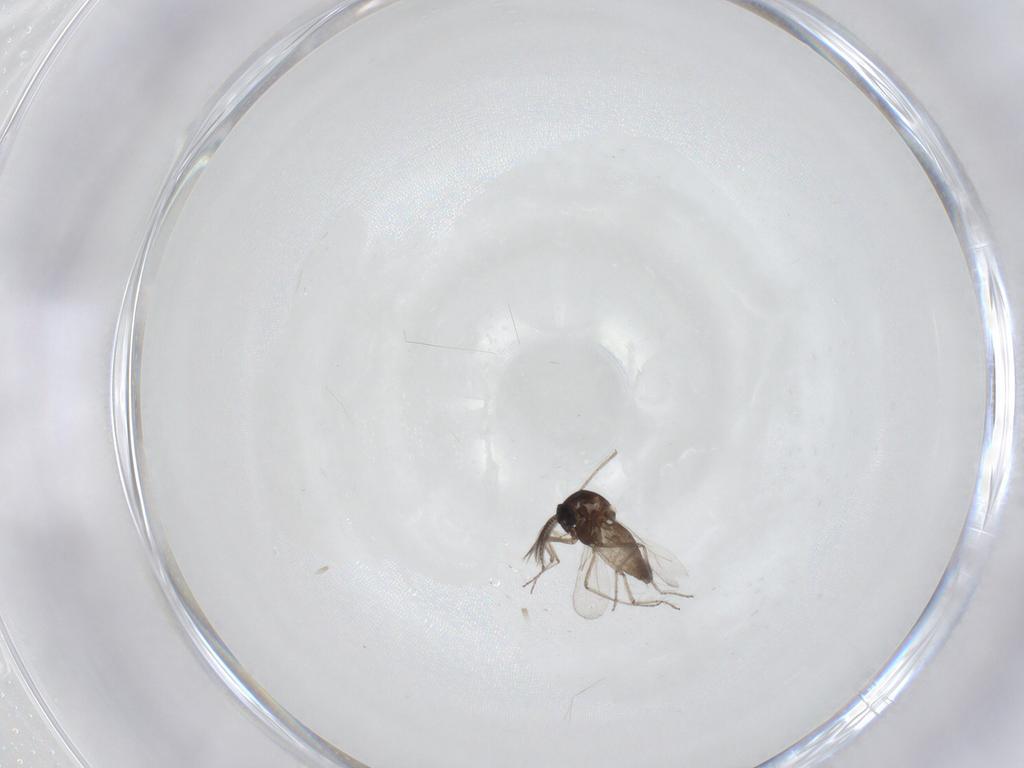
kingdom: Animalia
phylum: Arthropoda
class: Insecta
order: Diptera
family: Ceratopogonidae
